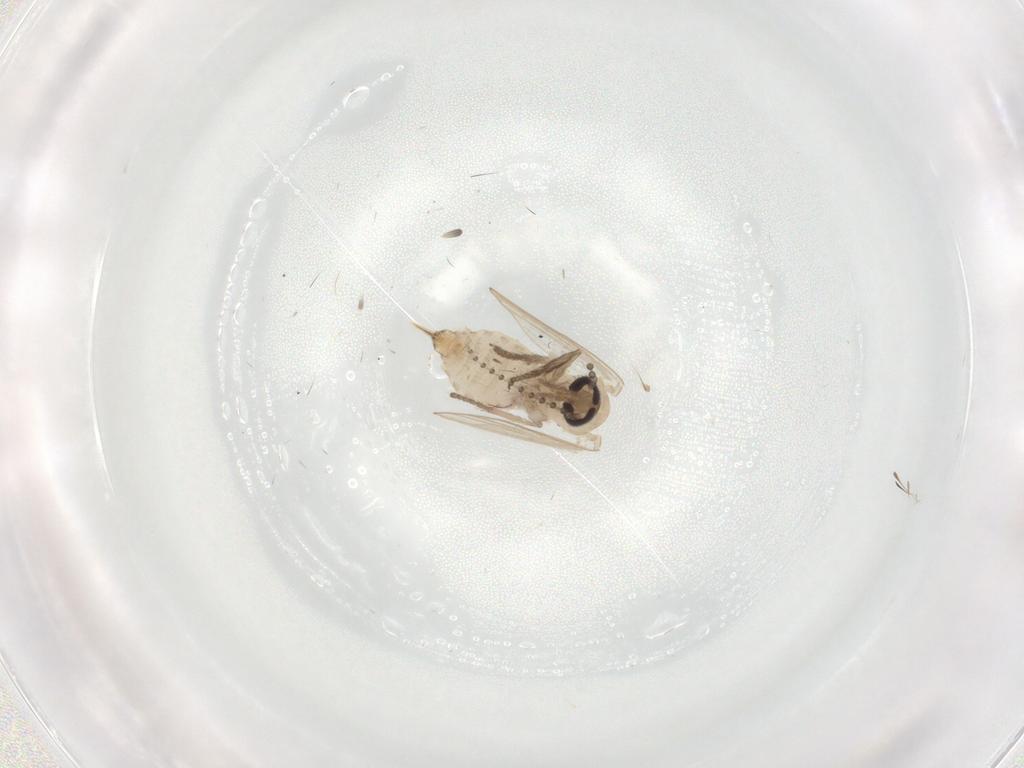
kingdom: Animalia
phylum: Arthropoda
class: Insecta
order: Diptera
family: Psychodidae
